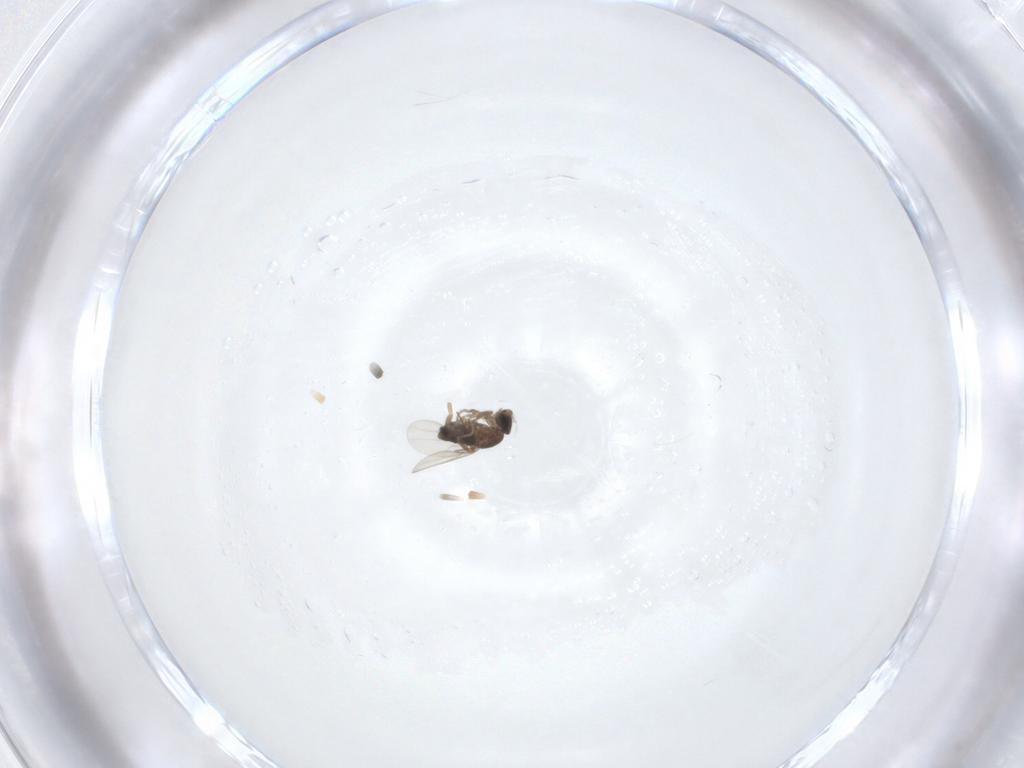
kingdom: Animalia
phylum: Arthropoda
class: Insecta
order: Diptera
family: Phoridae
